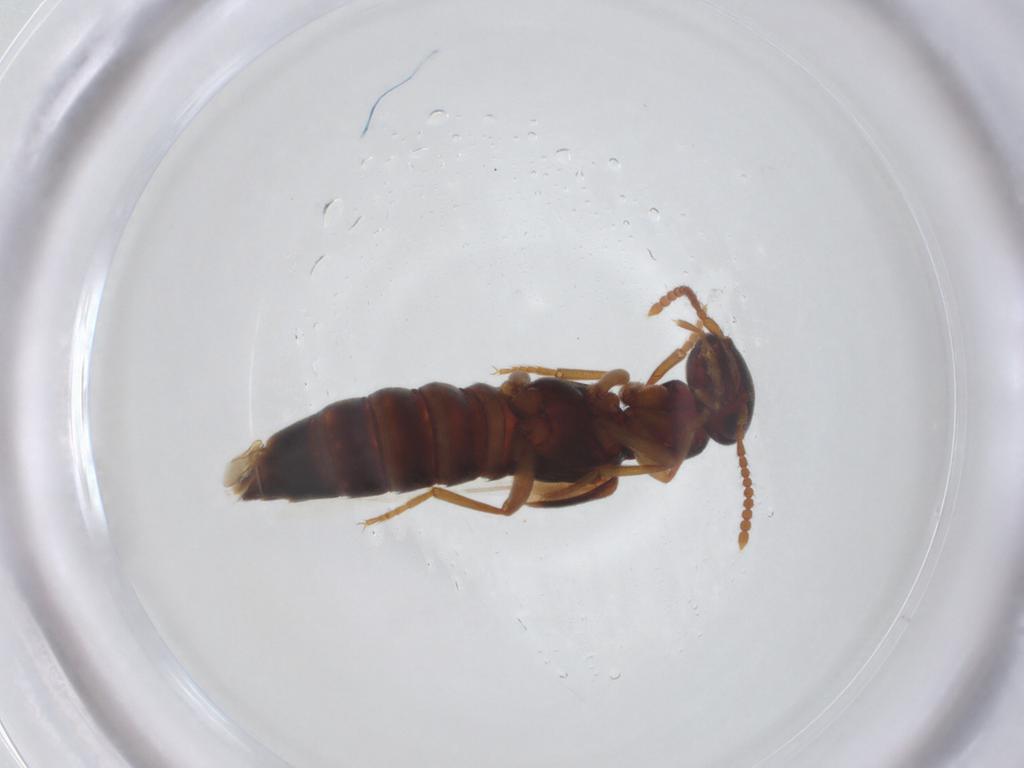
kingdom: Animalia
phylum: Arthropoda
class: Insecta
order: Coleoptera
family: Staphylinidae
